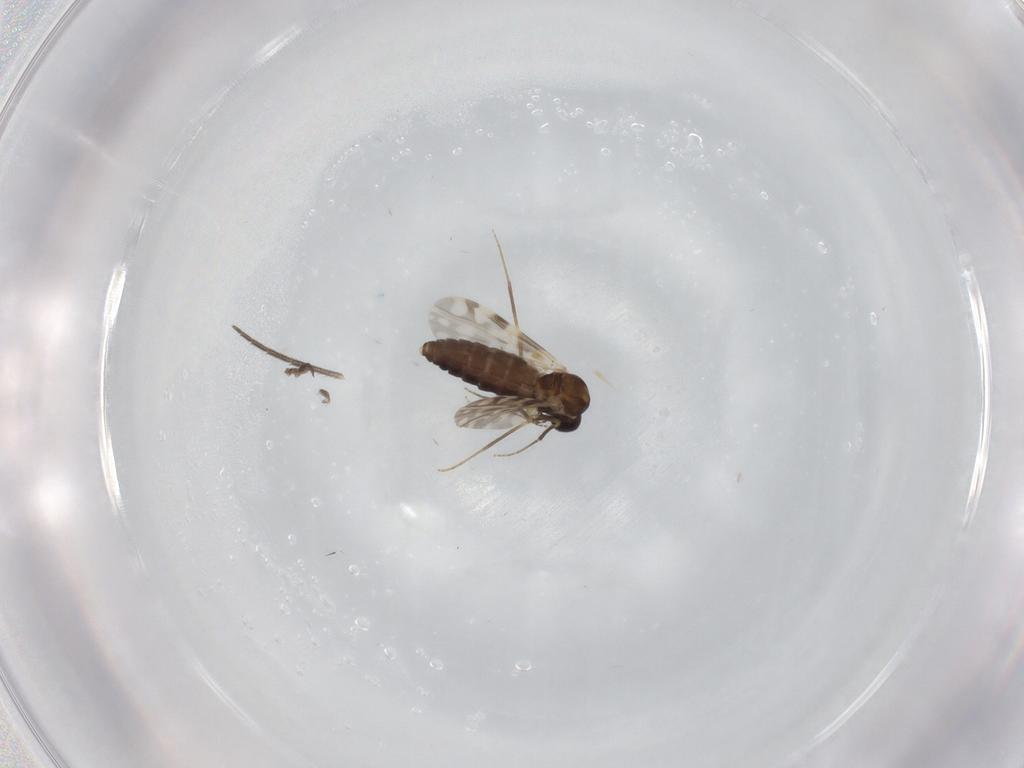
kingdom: Animalia
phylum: Arthropoda
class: Insecta
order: Diptera
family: Ceratopogonidae
